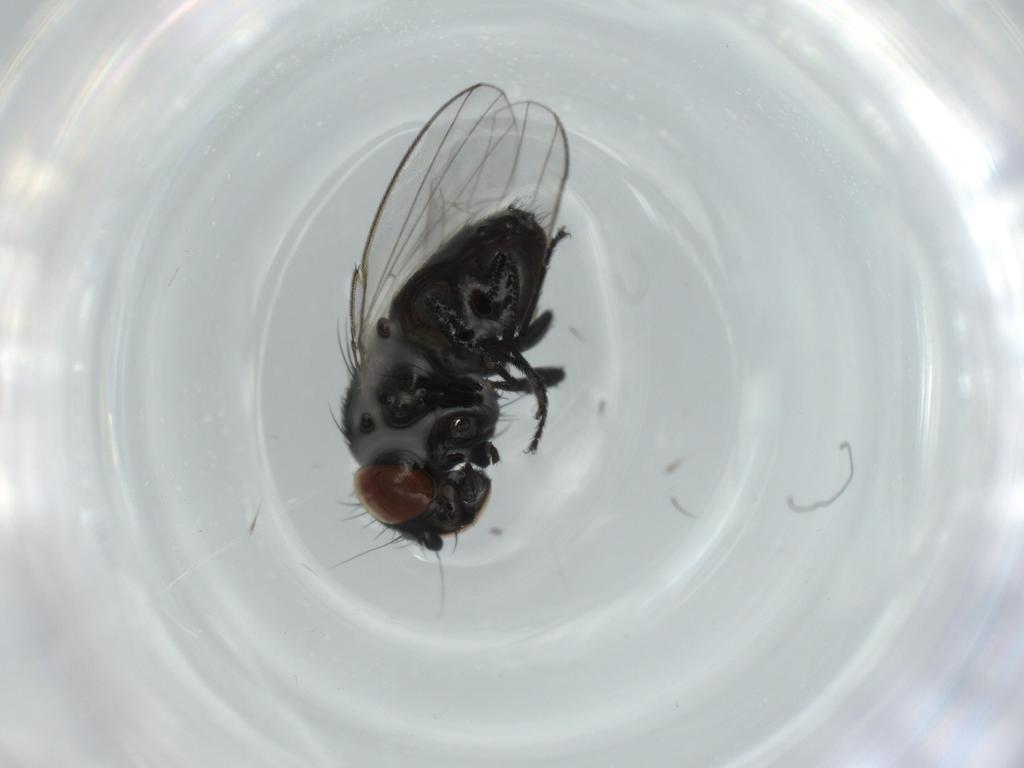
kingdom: Animalia
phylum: Arthropoda
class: Insecta
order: Diptera
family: Milichiidae
